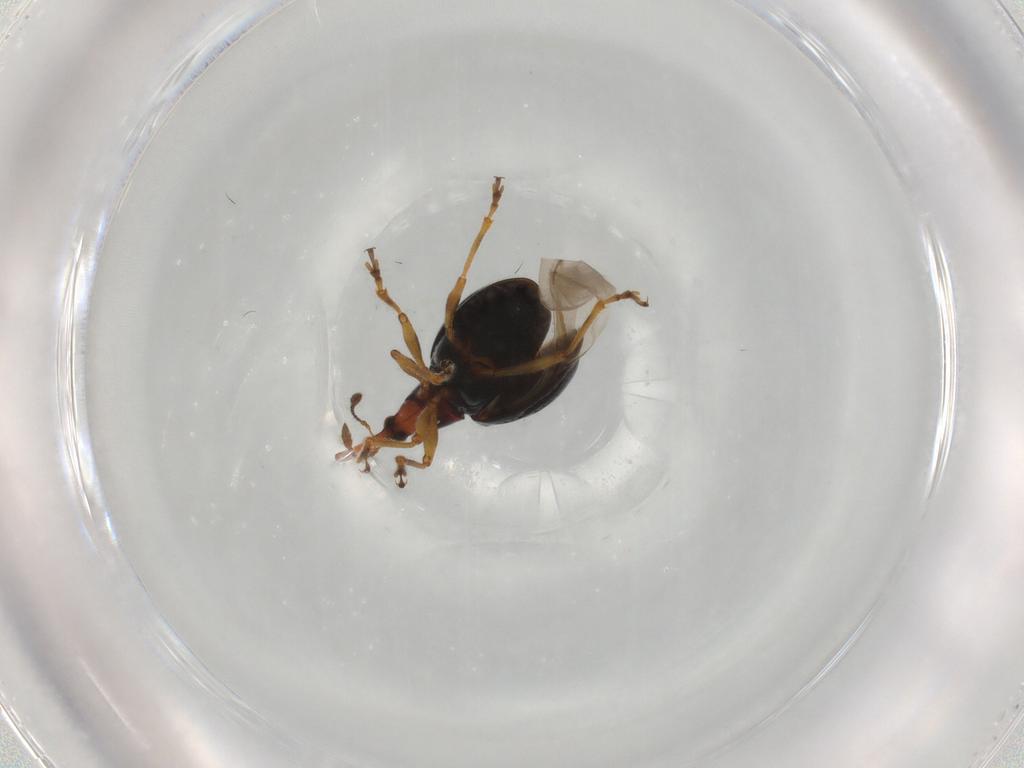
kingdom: Animalia
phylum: Arthropoda
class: Insecta
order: Coleoptera
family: Brentidae
